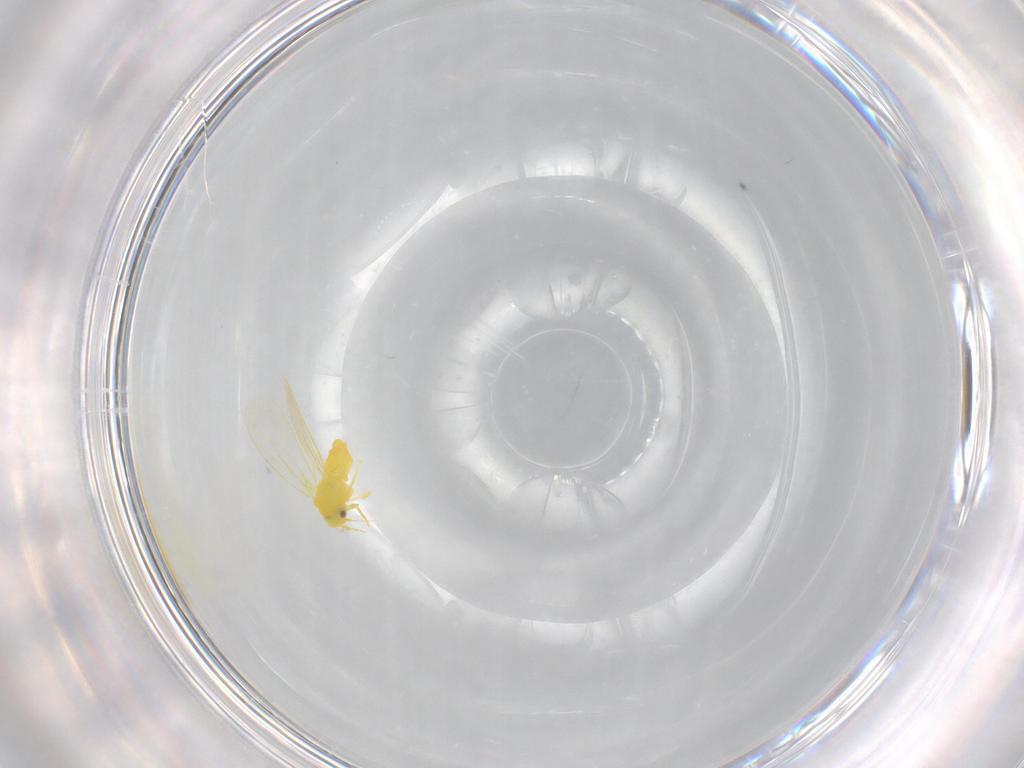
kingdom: Animalia
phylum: Arthropoda
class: Insecta
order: Hemiptera
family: Aleyrodidae
